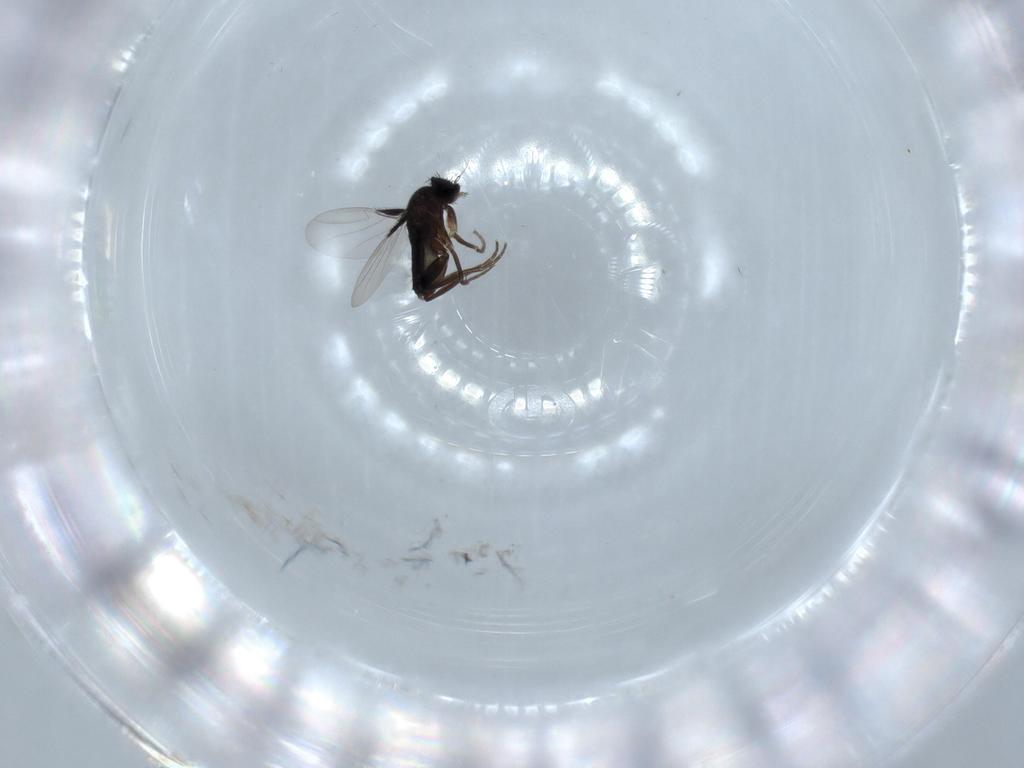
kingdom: Animalia
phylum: Arthropoda
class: Insecta
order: Diptera
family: Phoridae
